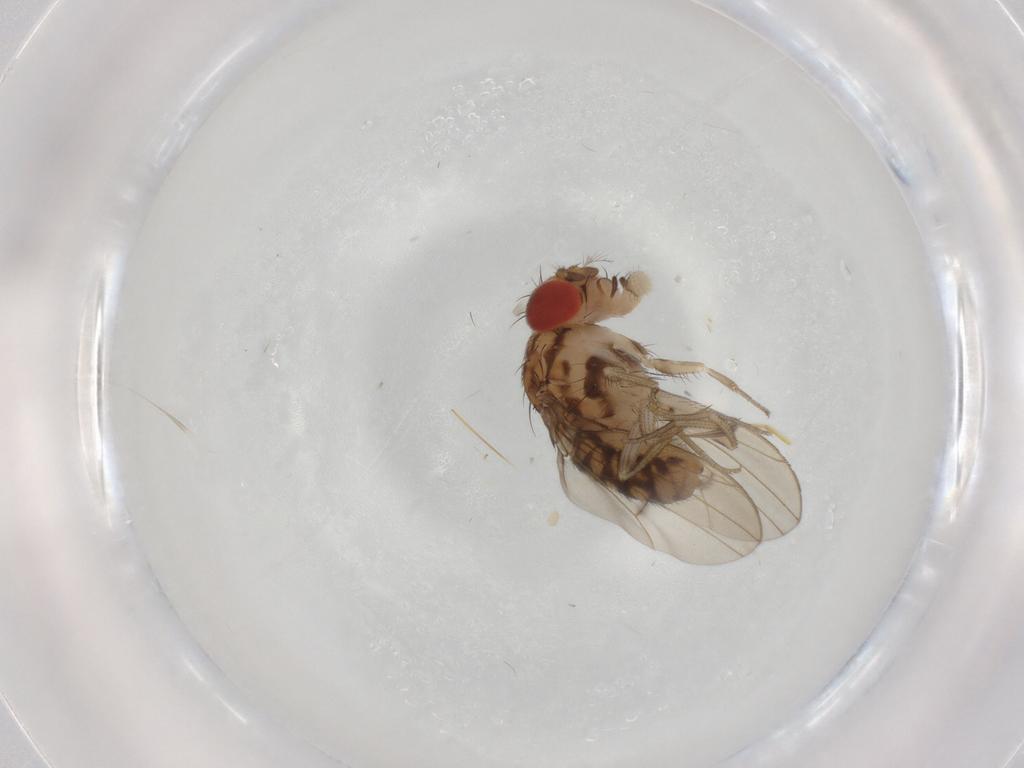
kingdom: Animalia
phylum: Arthropoda
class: Insecta
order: Diptera
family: Drosophilidae
